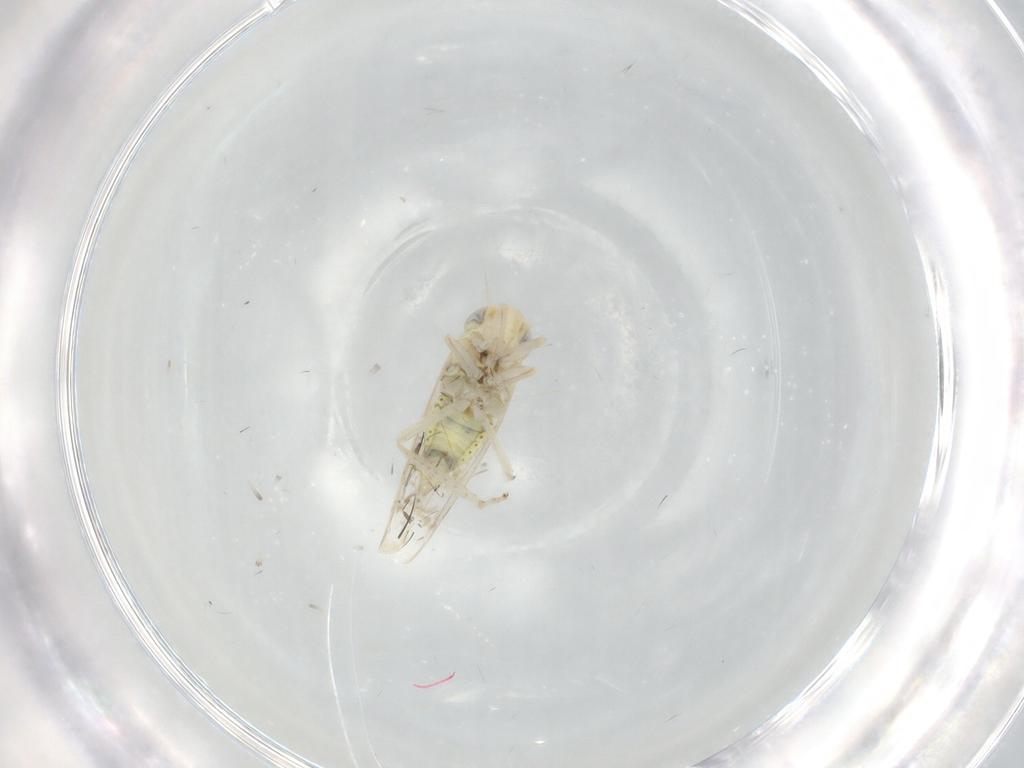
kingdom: Animalia
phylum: Arthropoda
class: Insecta
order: Hemiptera
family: Cicadellidae
